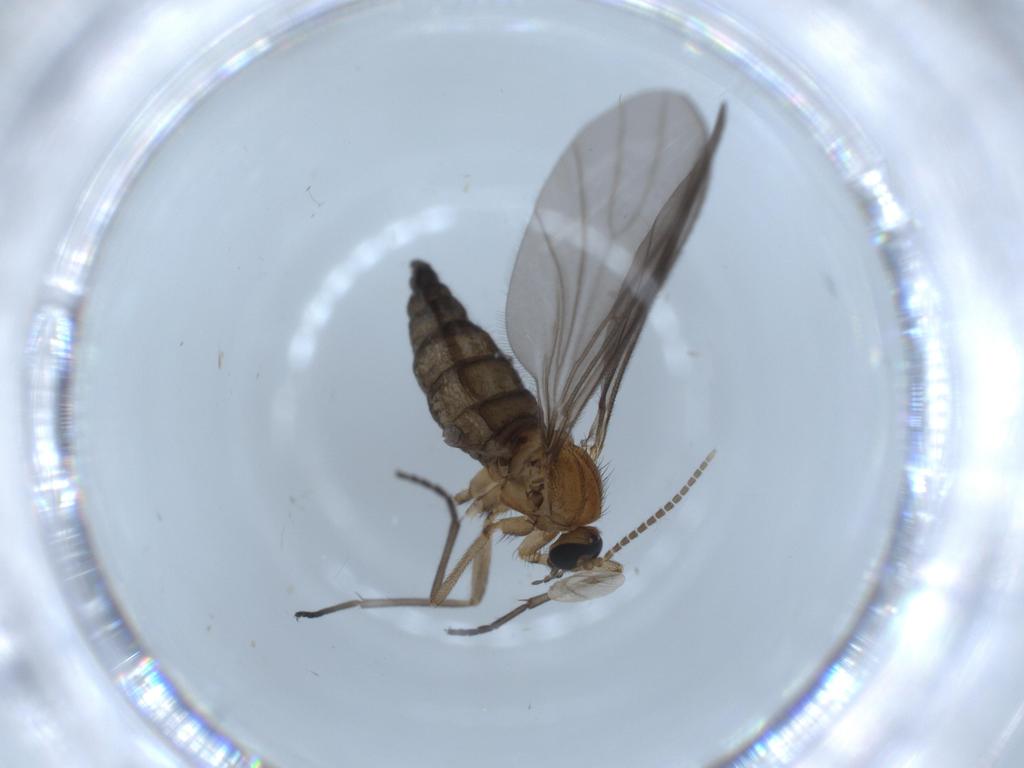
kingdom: Animalia
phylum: Arthropoda
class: Insecta
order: Diptera
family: Sciaridae
